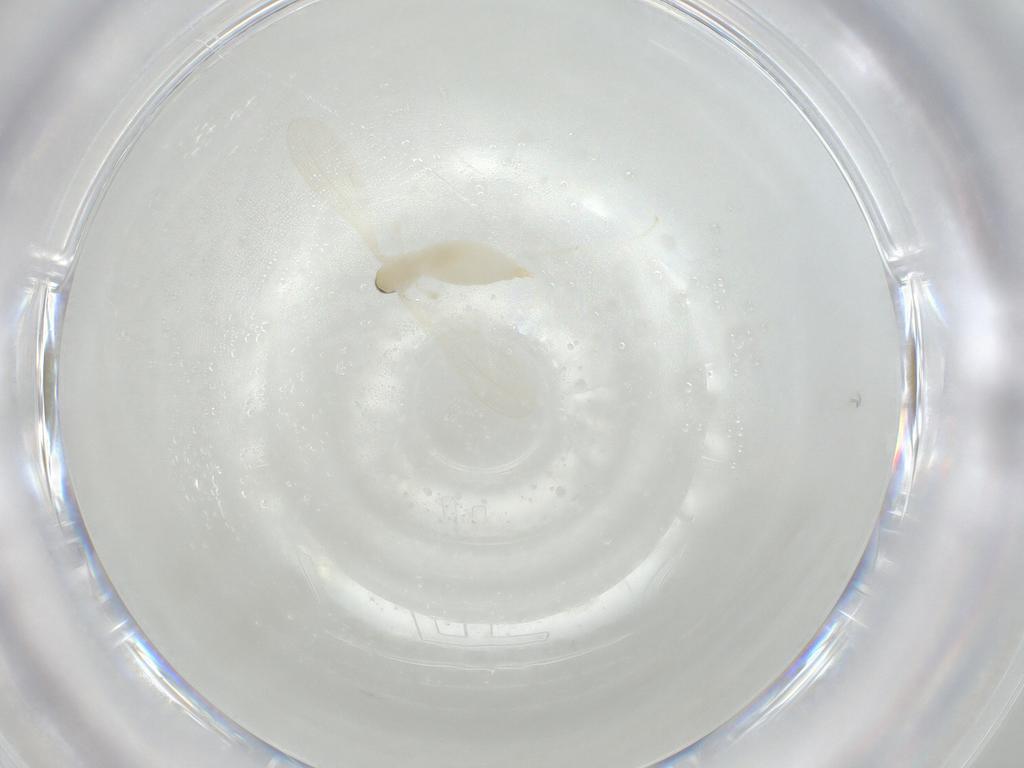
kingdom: Animalia
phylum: Arthropoda
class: Insecta
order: Diptera
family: Cecidomyiidae
